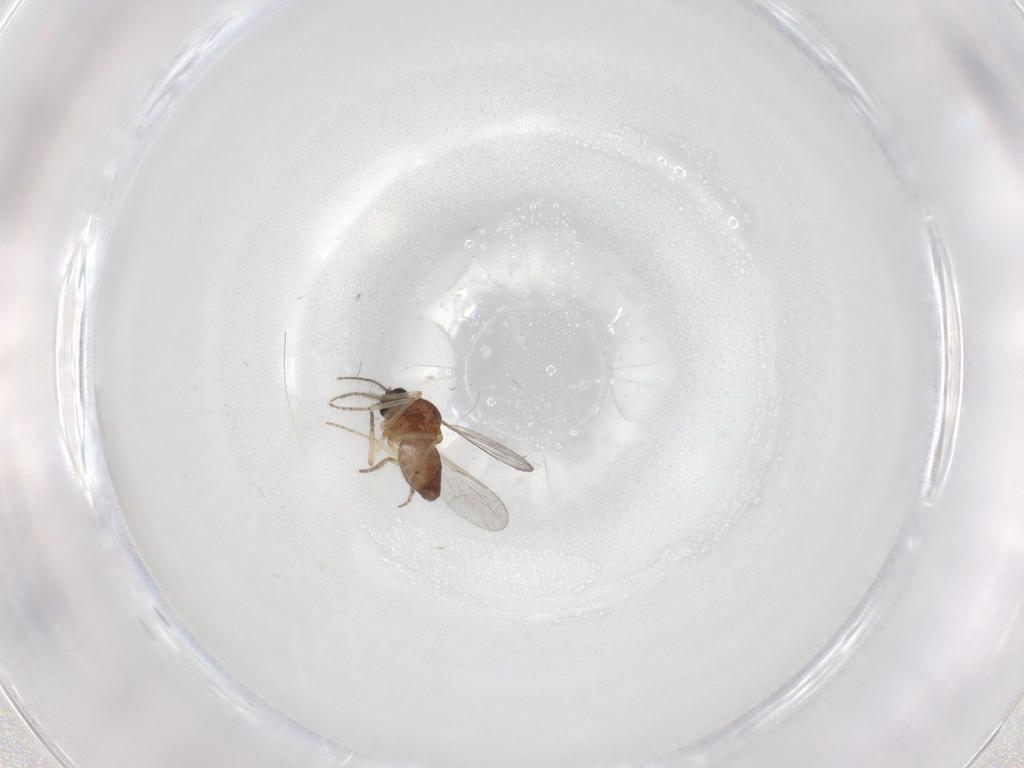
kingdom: Animalia
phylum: Arthropoda
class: Insecta
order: Diptera
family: Ceratopogonidae
